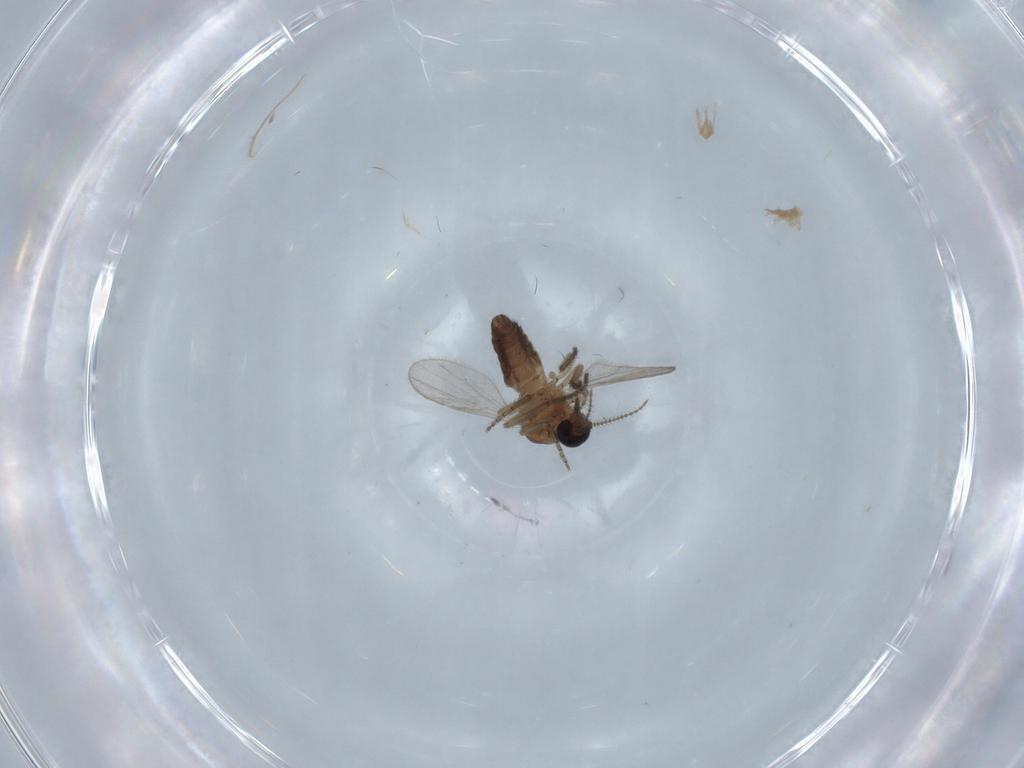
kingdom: Animalia
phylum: Arthropoda
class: Insecta
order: Diptera
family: Ceratopogonidae
